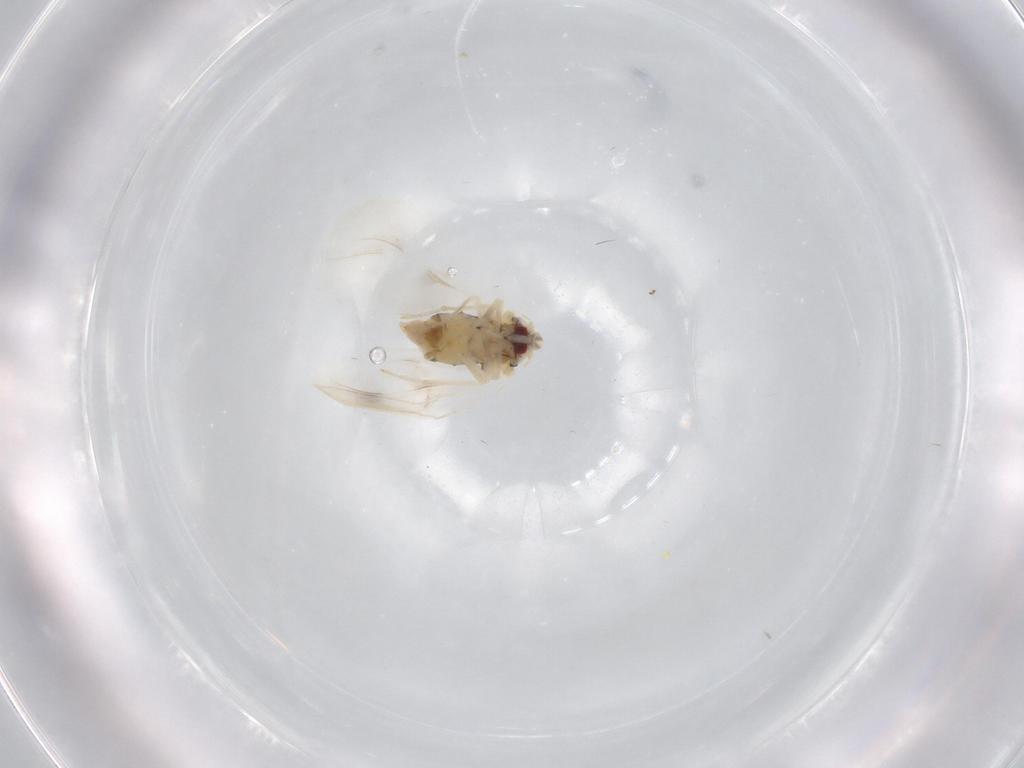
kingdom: Animalia
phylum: Arthropoda
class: Insecta
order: Hemiptera
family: Aleyrodidae
